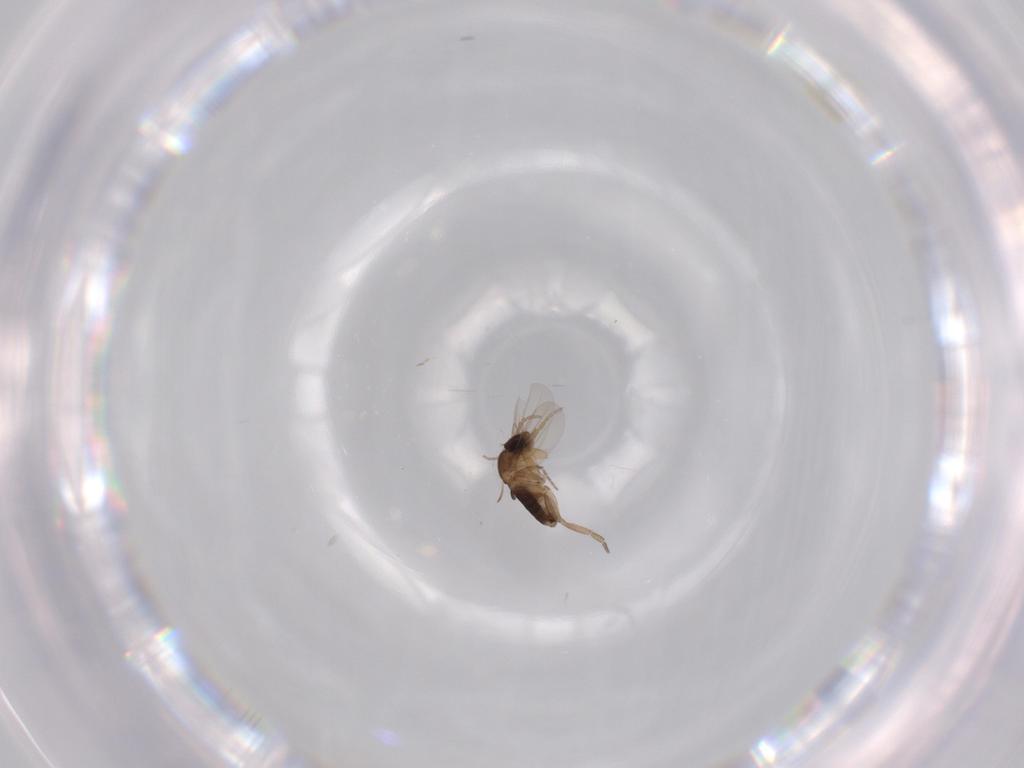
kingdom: Animalia
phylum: Arthropoda
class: Insecta
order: Diptera
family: Phoridae
